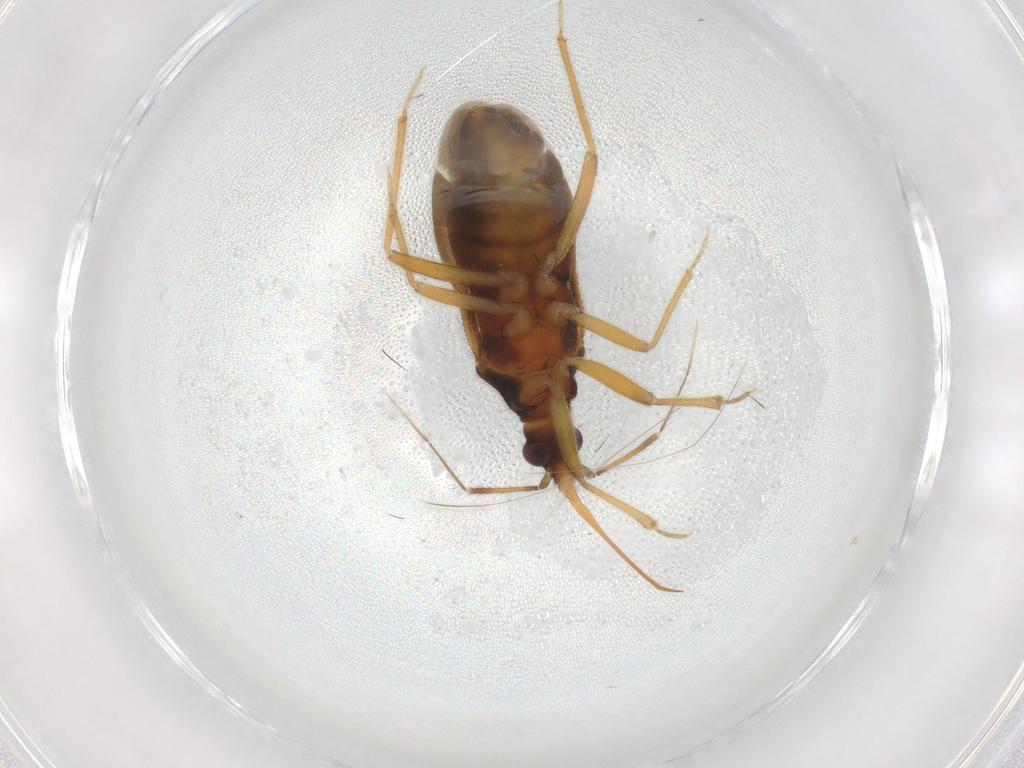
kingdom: Animalia
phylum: Arthropoda
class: Insecta
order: Hemiptera
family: Anthocoridae
